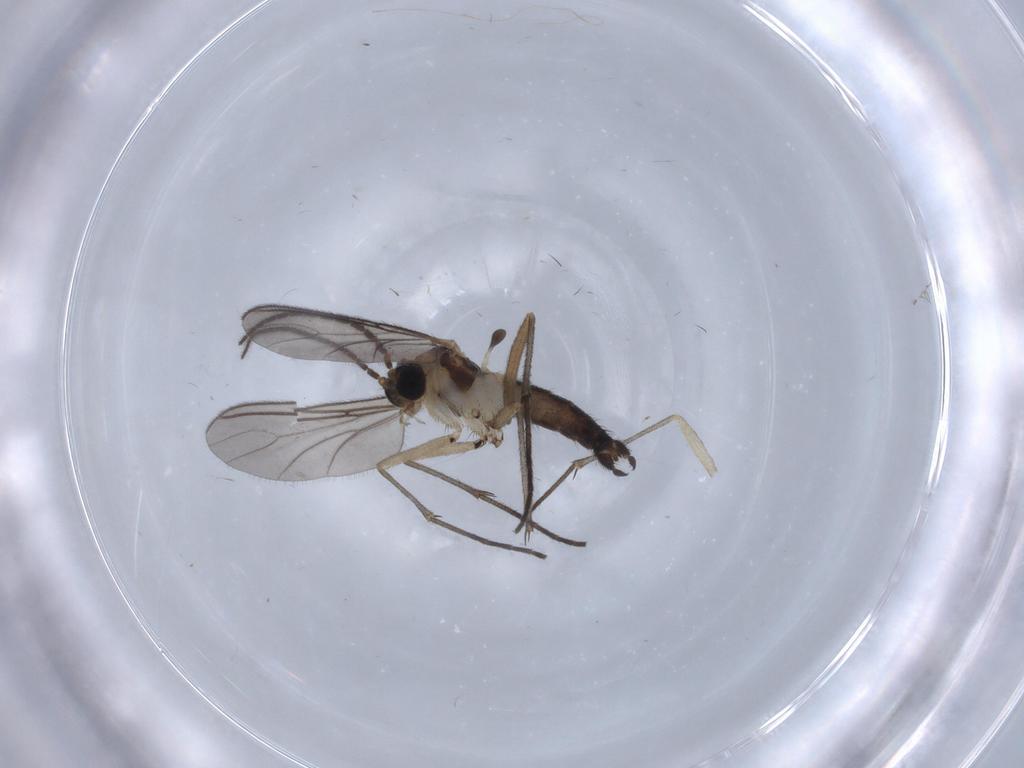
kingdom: Animalia
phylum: Arthropoda
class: Insecta
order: Diptera
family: Sciaridae
